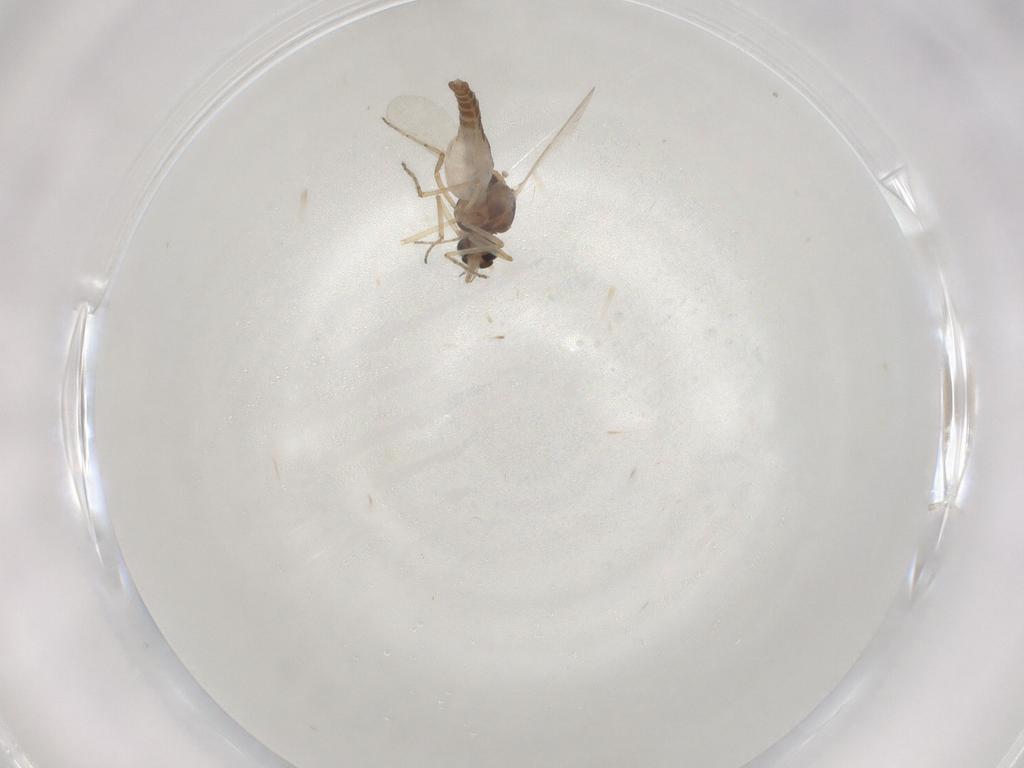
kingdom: Animalia
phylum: Arthropoda
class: Insecta
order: Diptera
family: Ceratopogonidae
